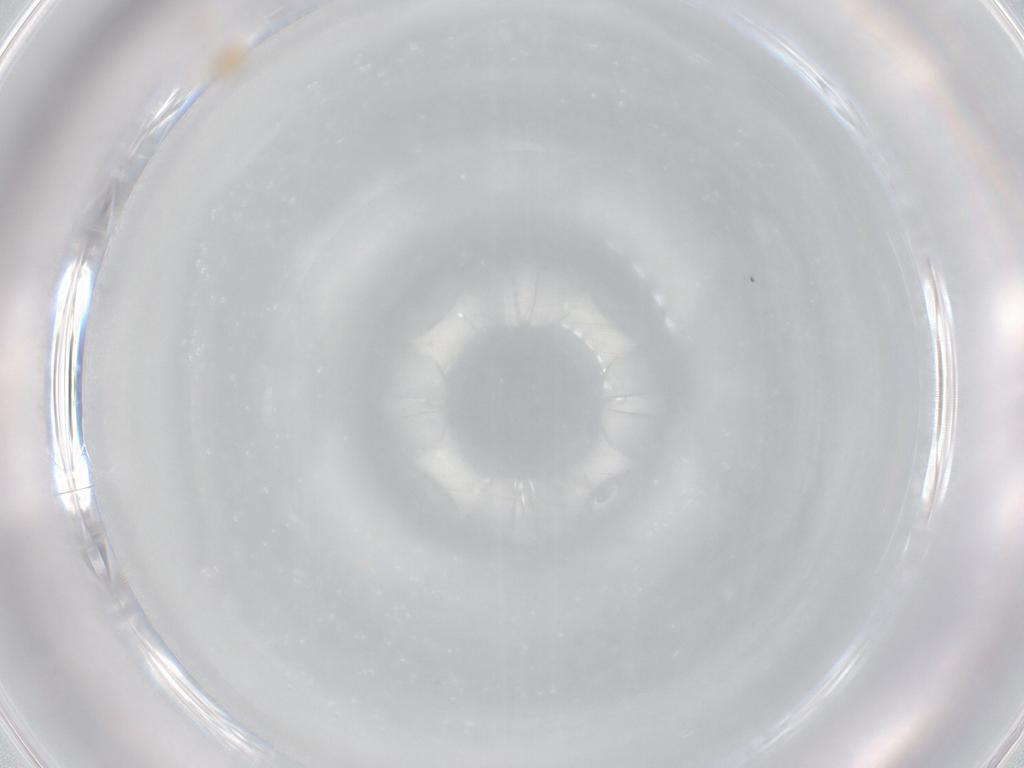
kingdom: Animalia
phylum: Arthropoda
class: Arachnida
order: Trombidiformes
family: Anystidae
